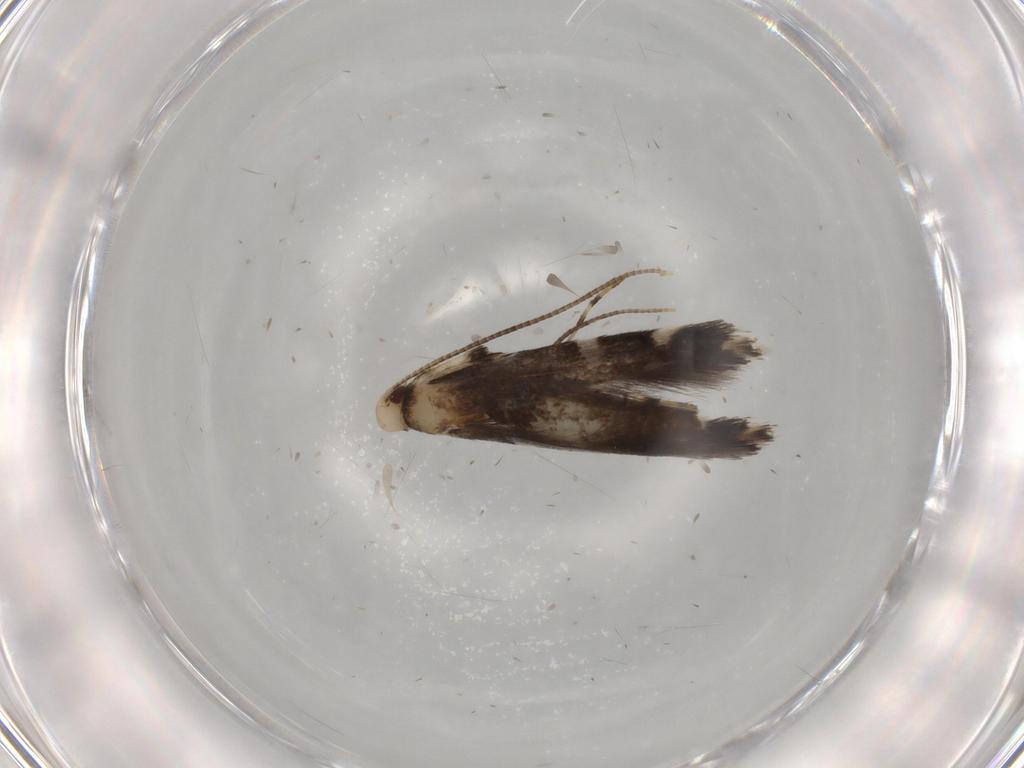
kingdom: Animalia
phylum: Arthropoda
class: Insecta
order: Lepidoptera
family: Gracillariidae
